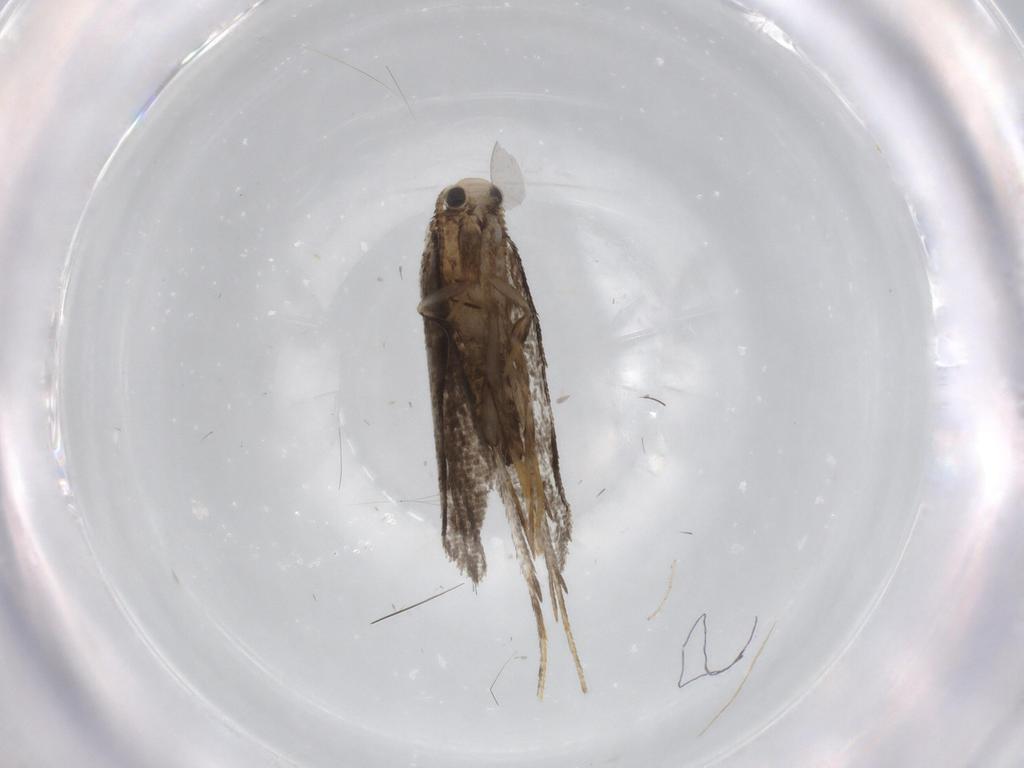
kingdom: Animalia
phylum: Arthropoda
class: Insecta
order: Lepidoptera
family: Psychidae
